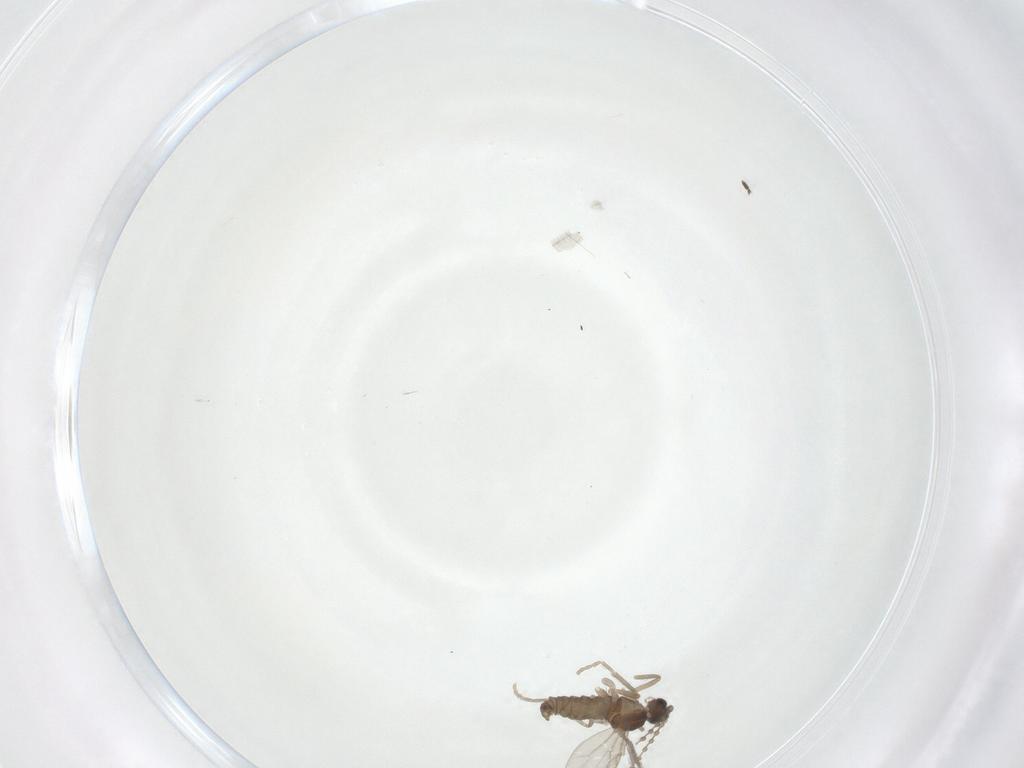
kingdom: Animalia
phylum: Arthropoda
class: Insecta
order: Diptera
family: Cecidomyiidae
